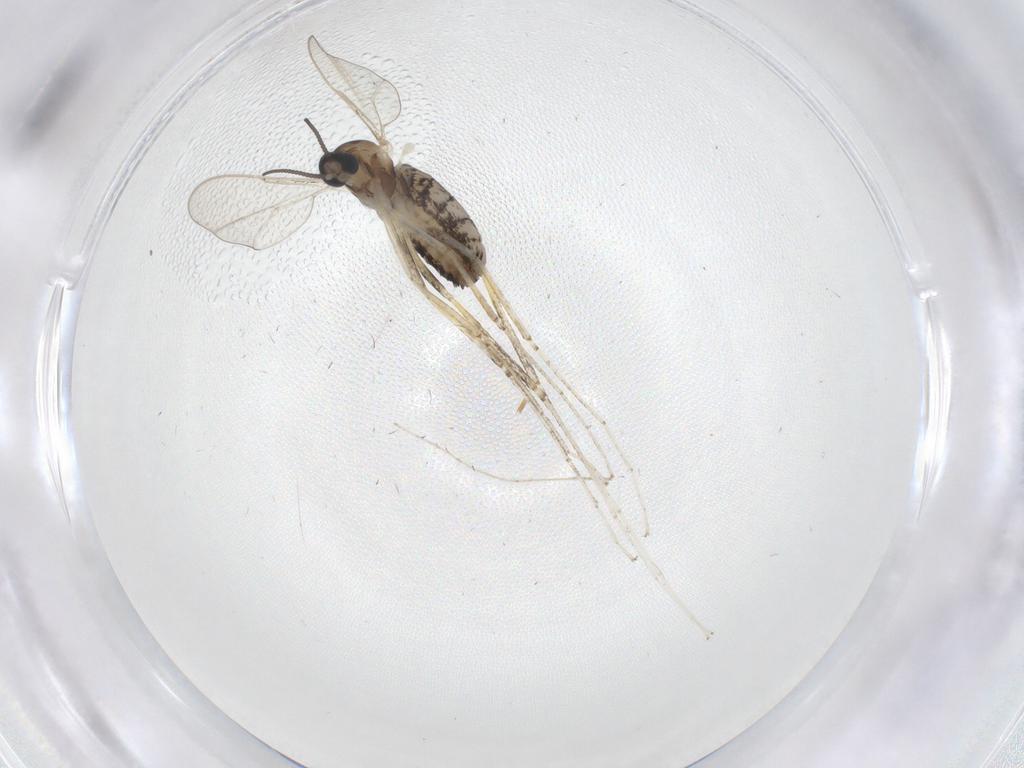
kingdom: Animalia
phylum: Arthropoda
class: Insecta
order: Diptera
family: Cecidomyiidae
